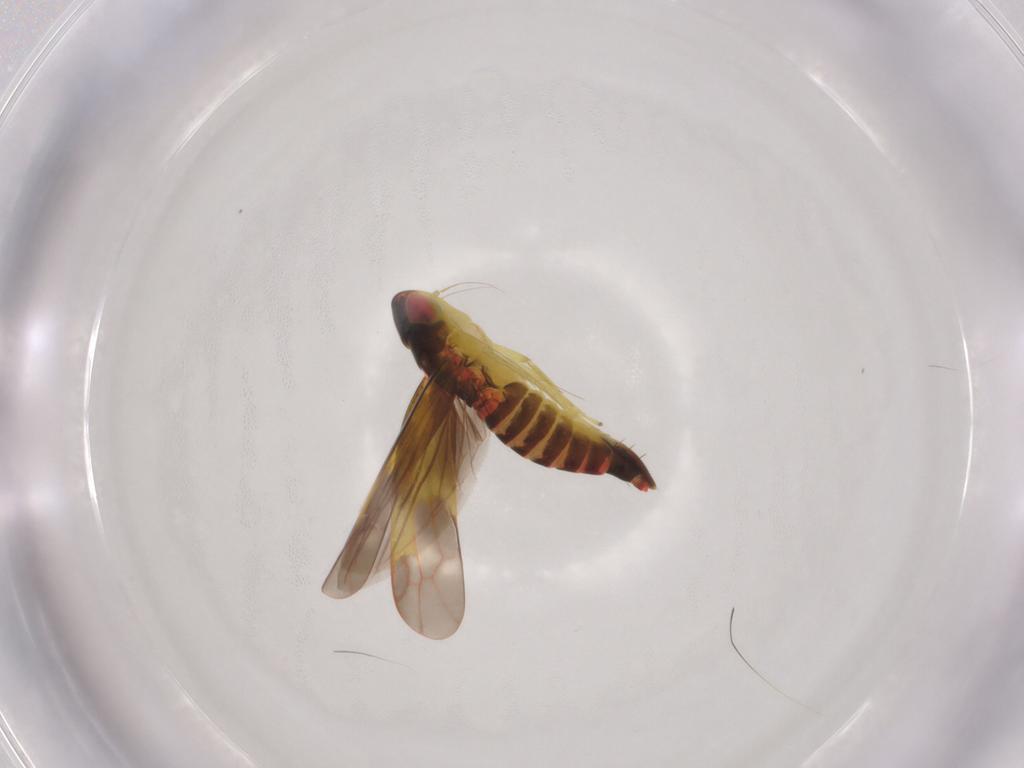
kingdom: Animalia
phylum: Arthropoda
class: Insecta
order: Hemiptera
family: Cicadellidae
